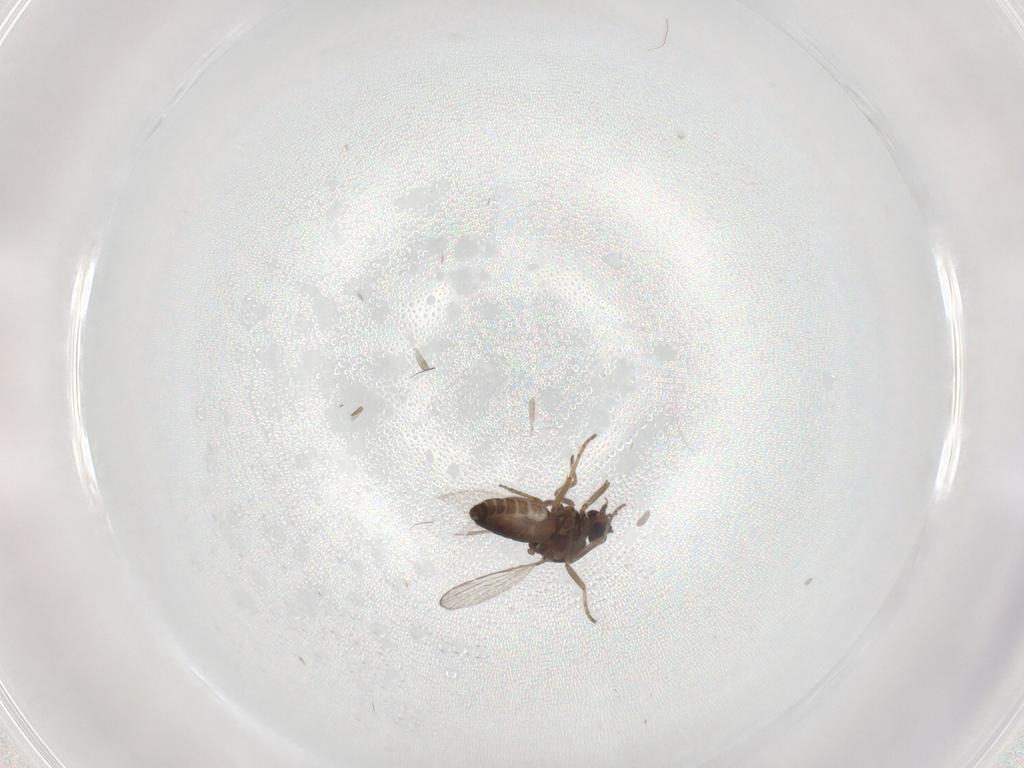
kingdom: Animalia
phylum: Arthropoda
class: Insecta
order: Diptera
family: Ceratopogonidae
